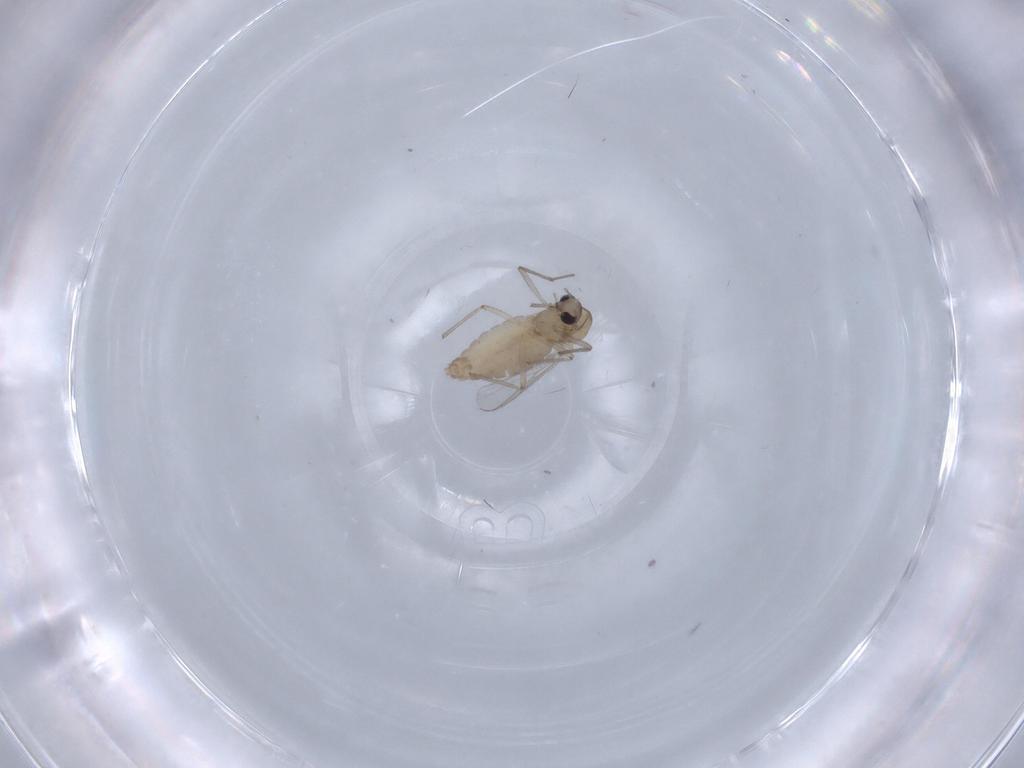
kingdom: Animalia
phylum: Arthropoda
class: Insecta
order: Diptera
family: Chironomidae
